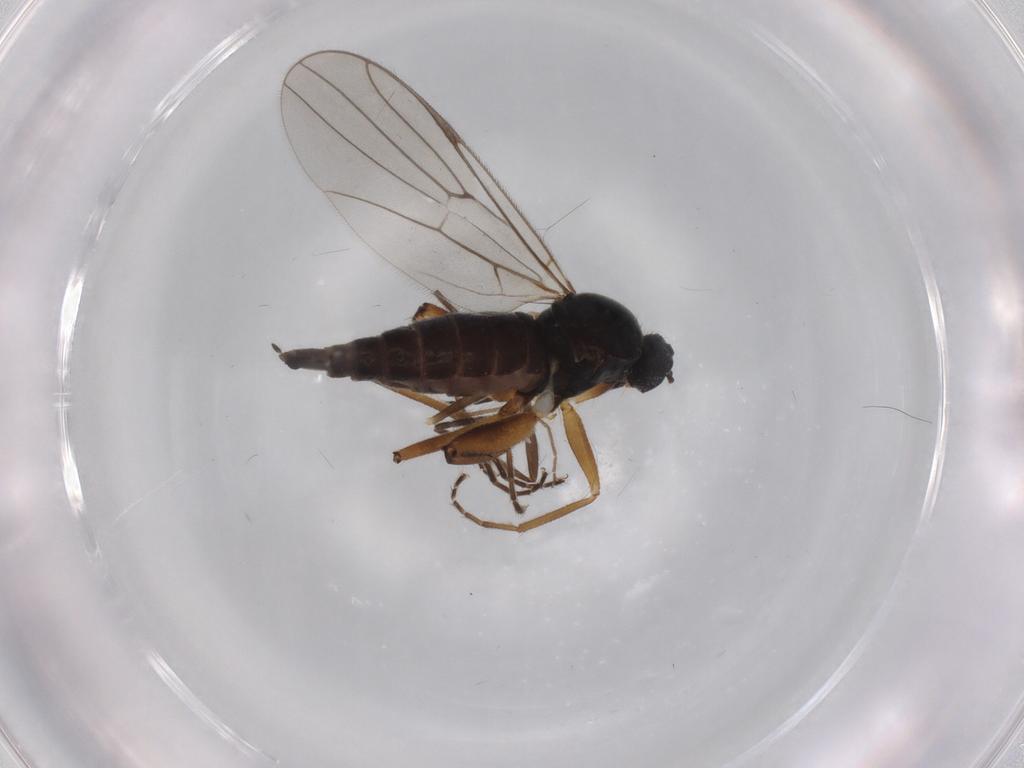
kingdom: Animalia
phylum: Arthropoda
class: Insecta
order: Diptera
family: Hybotidae
